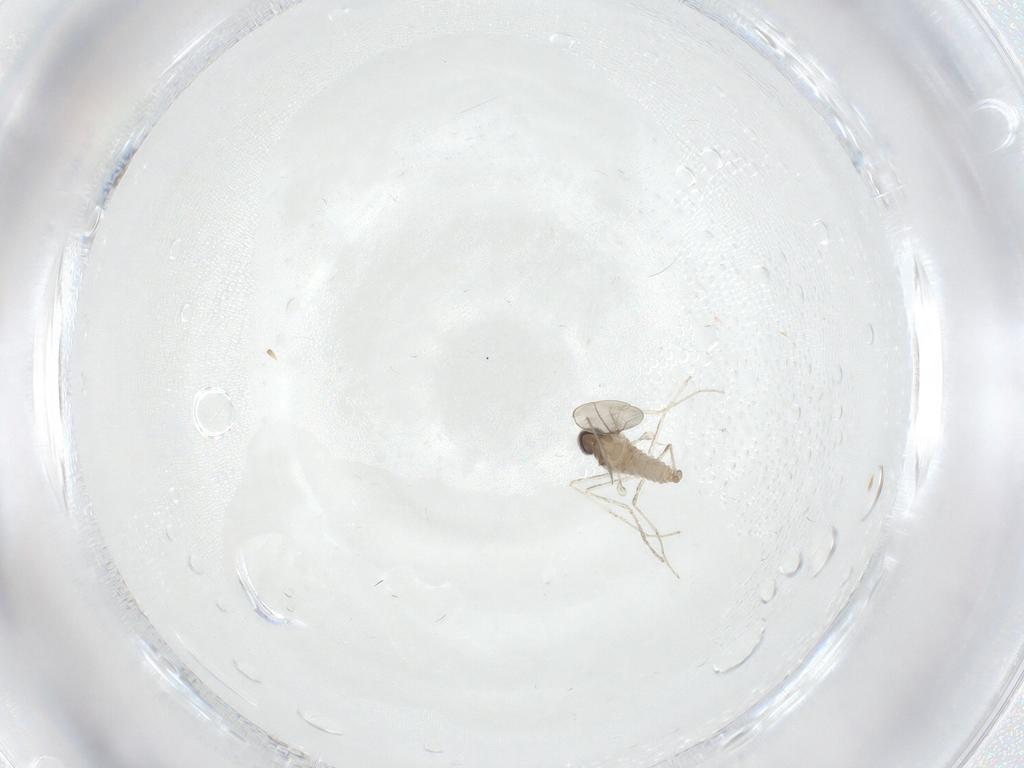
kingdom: Animalia
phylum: Arthropoda
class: Insecta
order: Diptera
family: Cecidomyiidae
